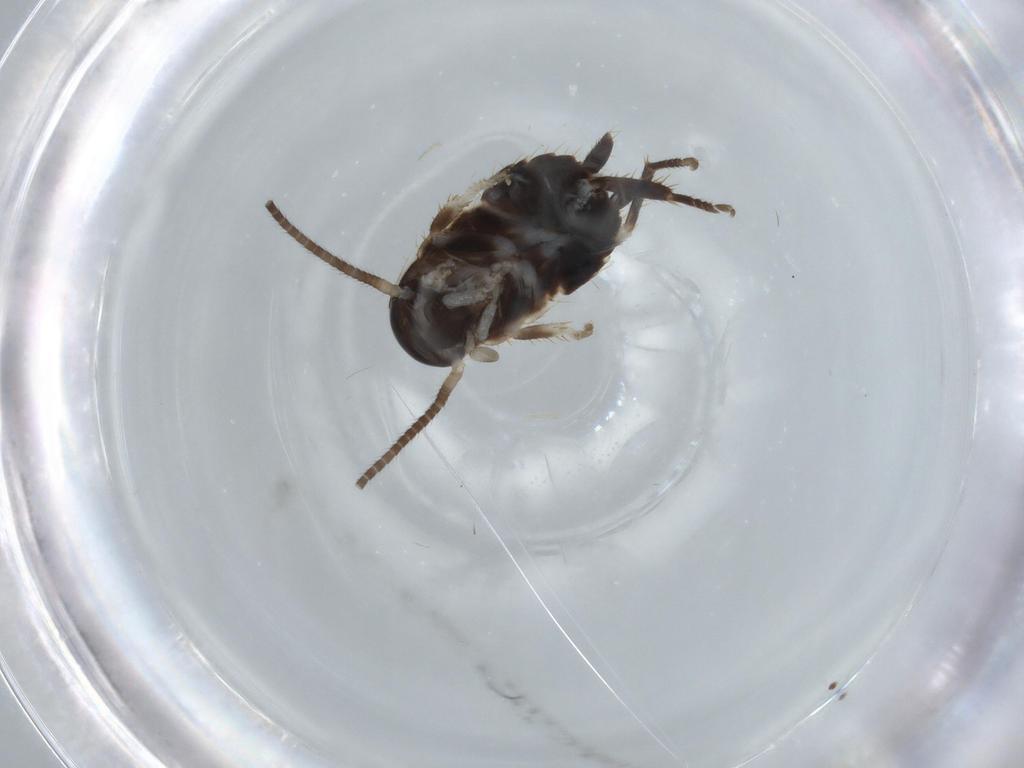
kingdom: Animalia
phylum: Arthropoda
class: Insecta
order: Blattodea
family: Ectobiidae
